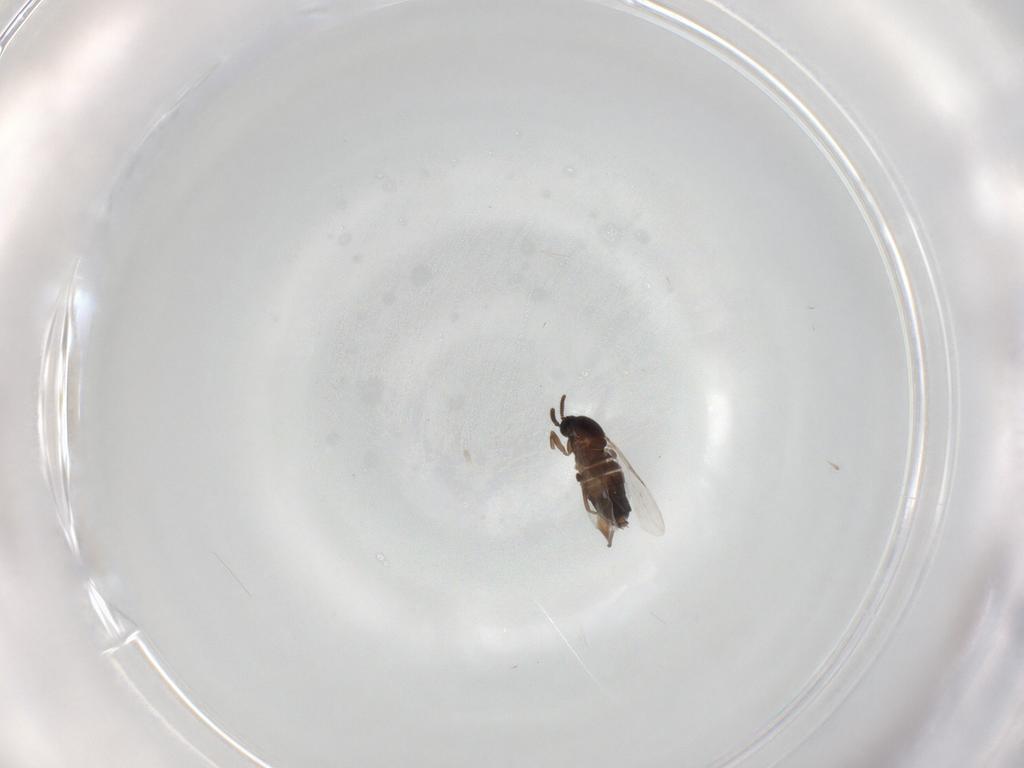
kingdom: Animalia
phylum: Arthropoda
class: Insecta
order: Diptera
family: Scatopsidae
